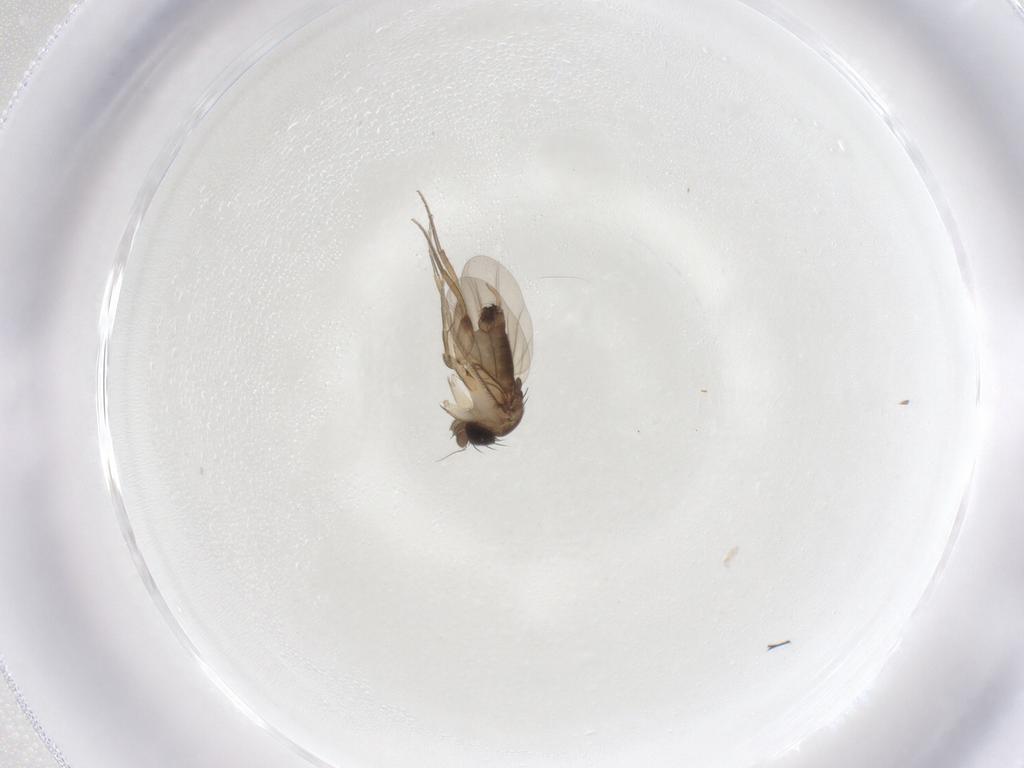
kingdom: Animalia
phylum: Arthropoda
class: Insecta
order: Diptera
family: Phoridae
